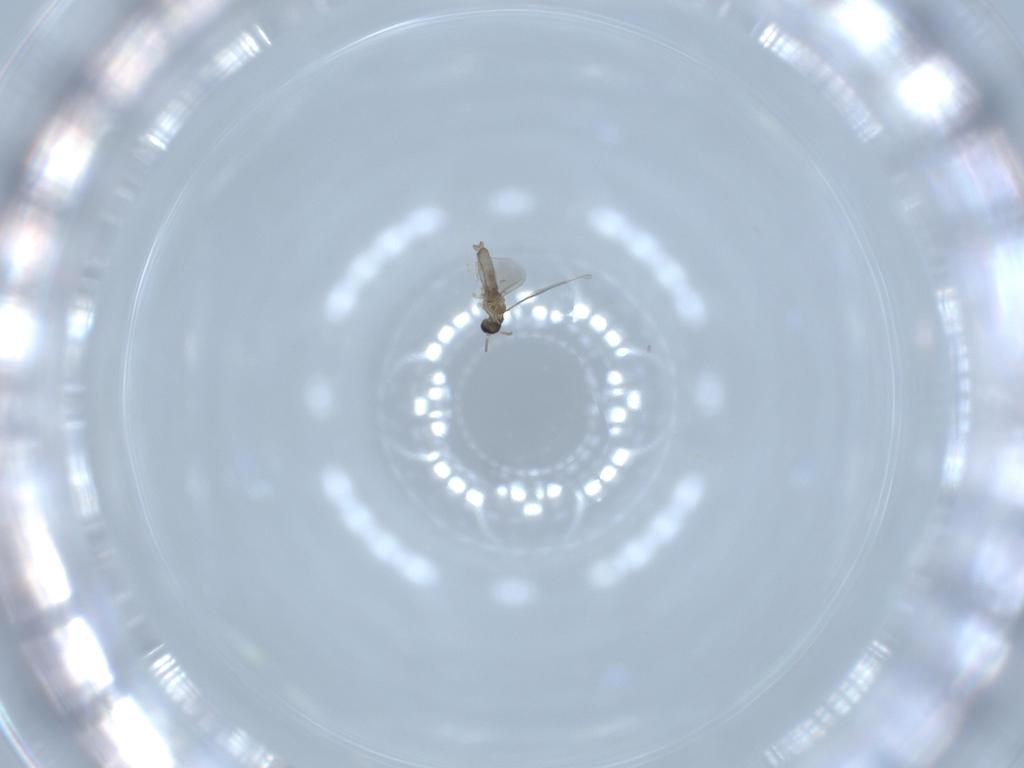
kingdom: Animalia
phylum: Arthropoda
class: Insecta
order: Diptera
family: Cecidomyiidae
